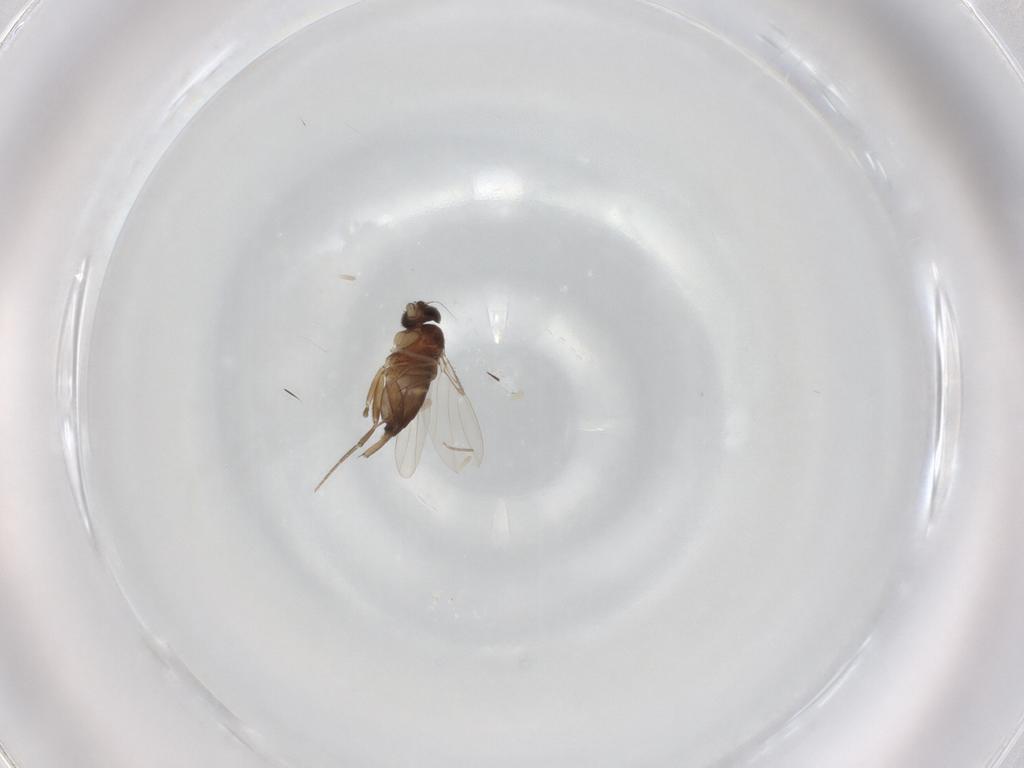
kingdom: Animalia
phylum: Arthropoda
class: Insecta
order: Diptera
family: Phoridae
